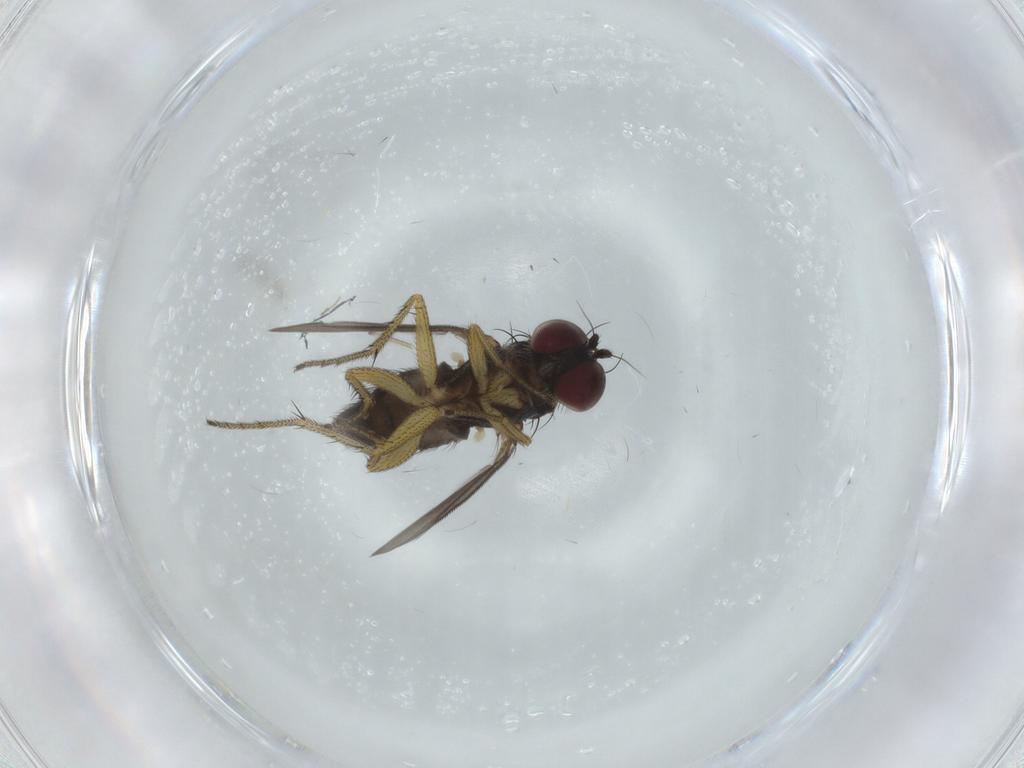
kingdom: Animalia
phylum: Arthropoda
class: Insecta
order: Diptera
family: Dolichopodidae
